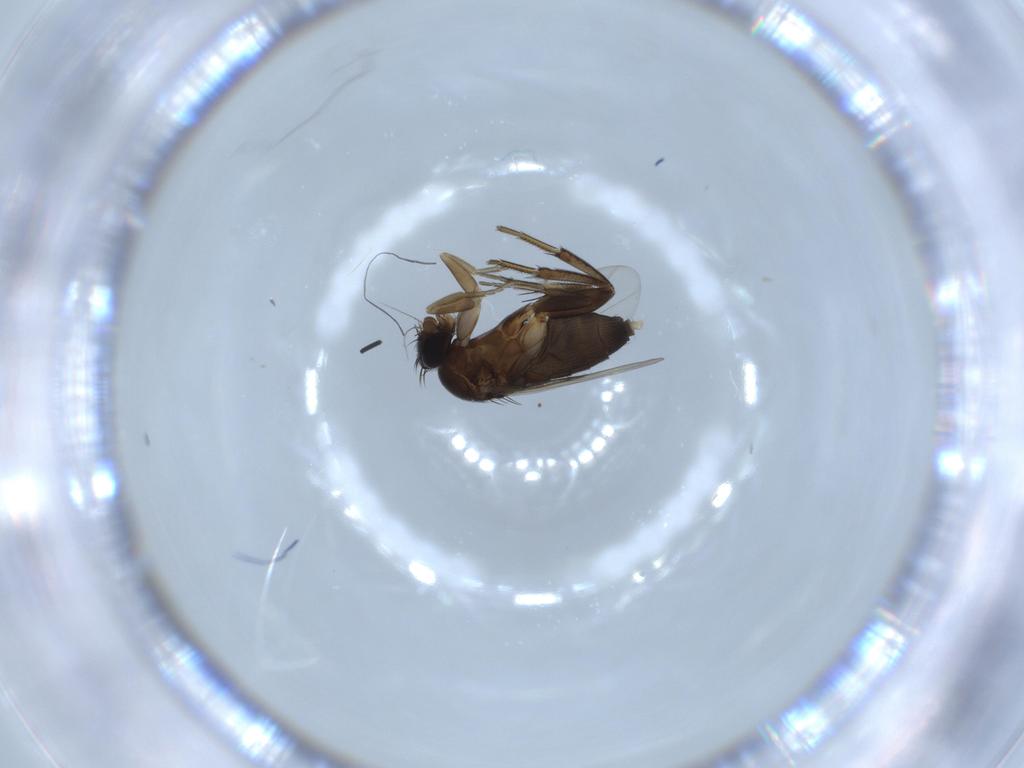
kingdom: Animalia
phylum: Arthropoda
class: Insecta
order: Diptera
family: Phoridae
